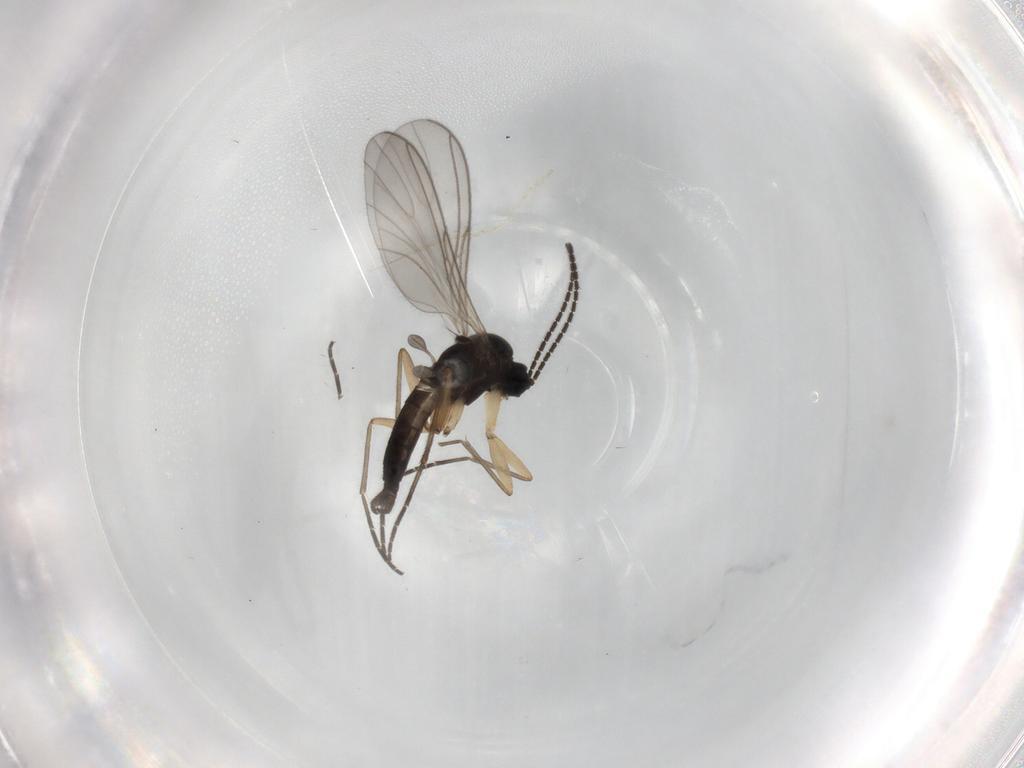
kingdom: Animalia
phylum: Arthropoda
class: Insecta
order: Diptera
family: Sciaridae
